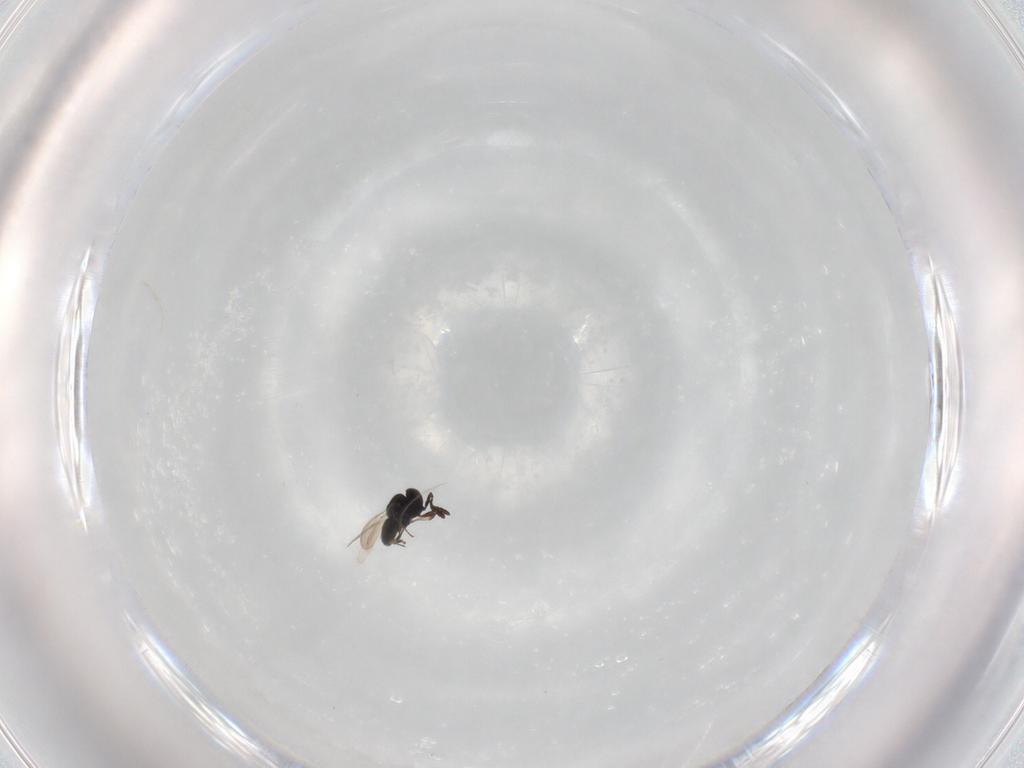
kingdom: Animalia
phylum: Arthropoda
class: Insecta
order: Hymenoptera
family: Scelionidae
